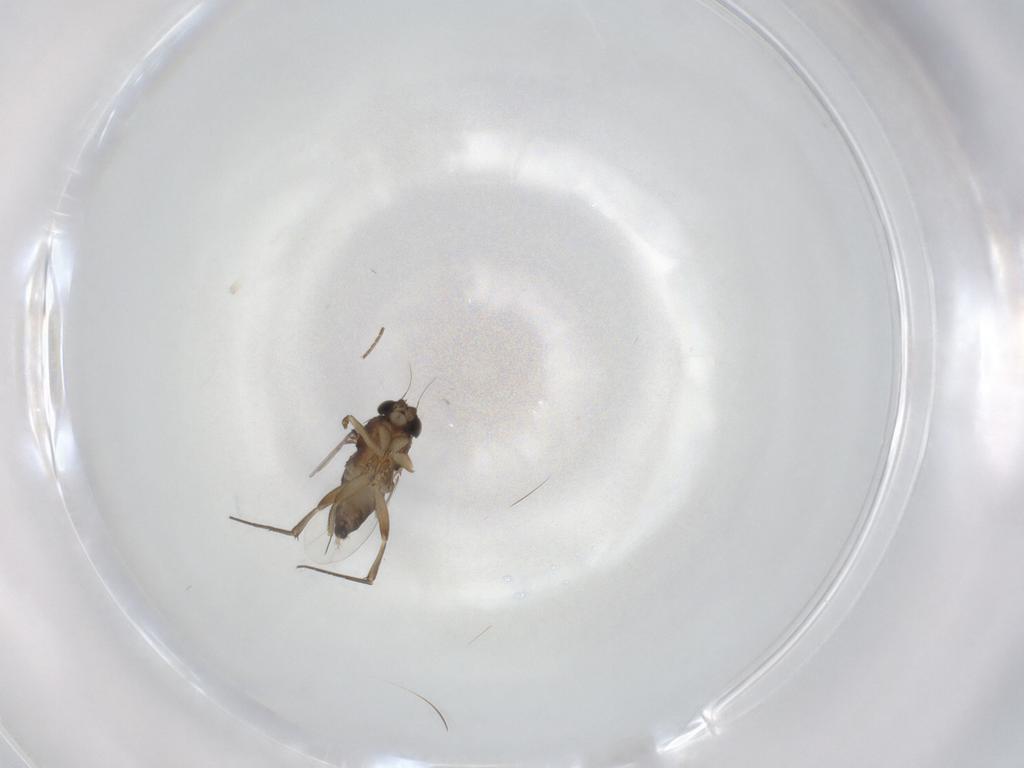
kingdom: Animalia
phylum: Arthropoda
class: Insecta
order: Diptera
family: Phoridae
